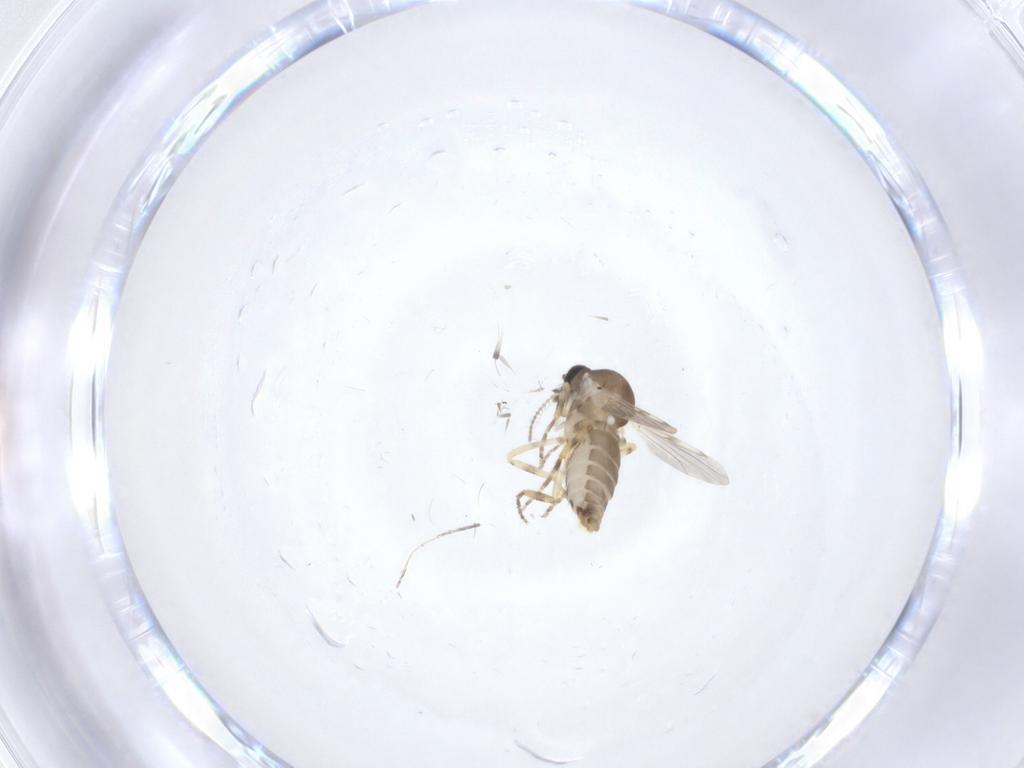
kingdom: Animalia
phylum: Arthropoda
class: Insecta
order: Diptera
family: Ceratopogonidae
